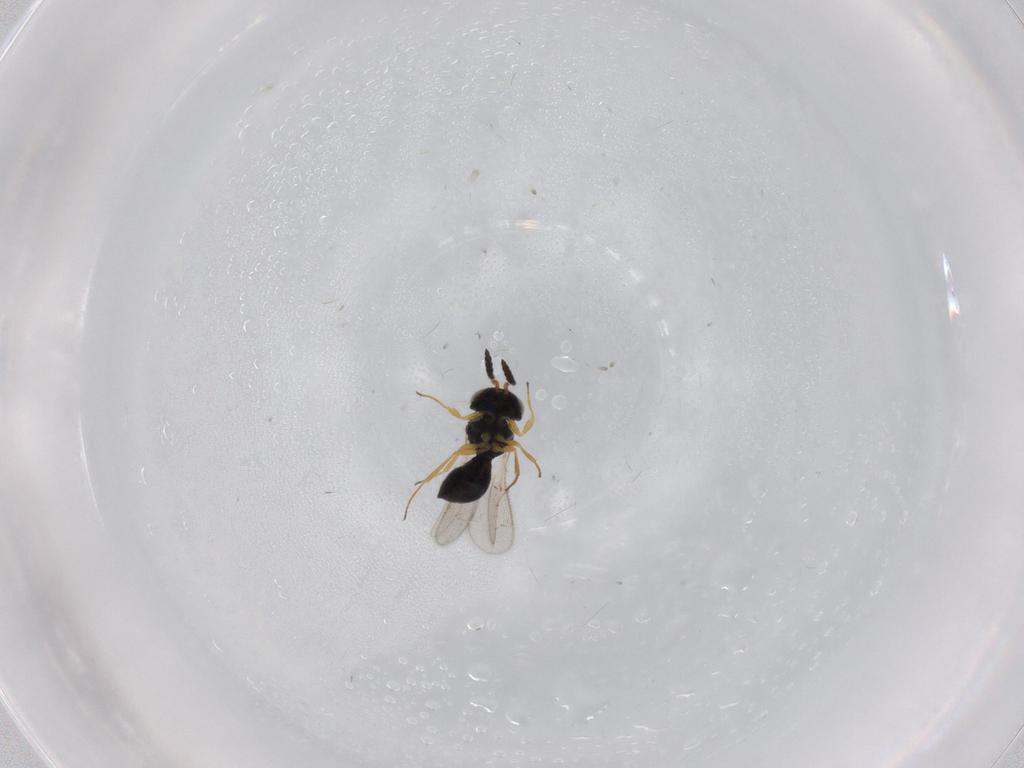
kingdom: Animalia
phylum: Arthropoda
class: Insecta
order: Hymenoptera
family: Scelionidae
